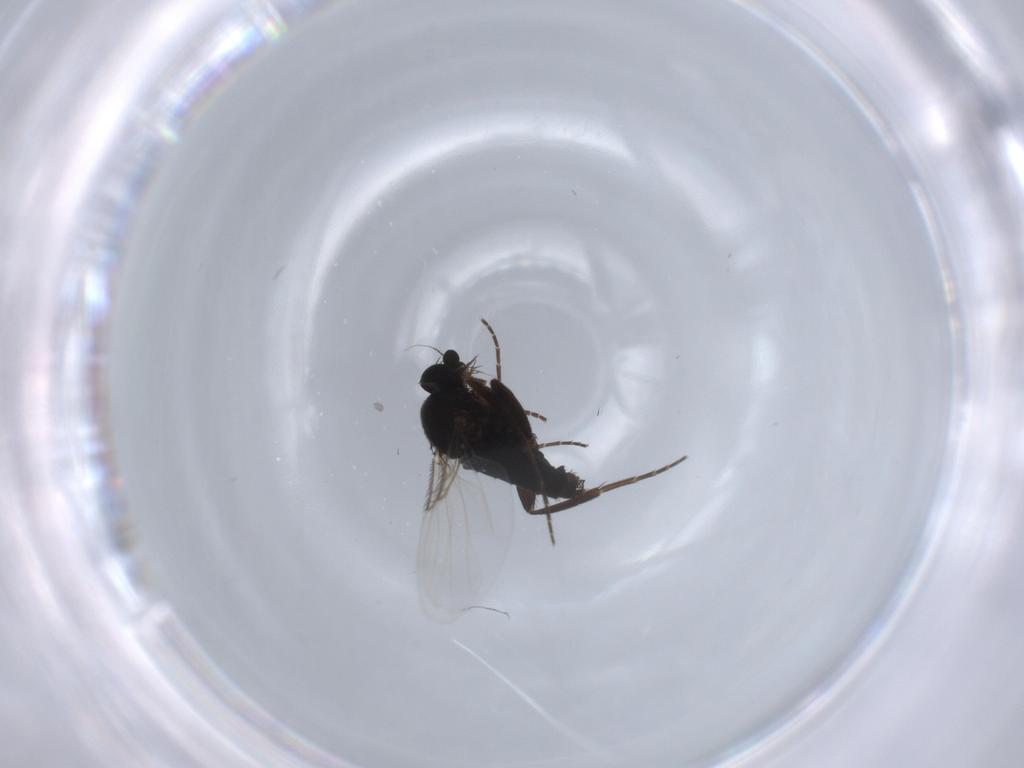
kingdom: Animalia
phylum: Arthropoda
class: Insecta
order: Diptera
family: Phoridae
